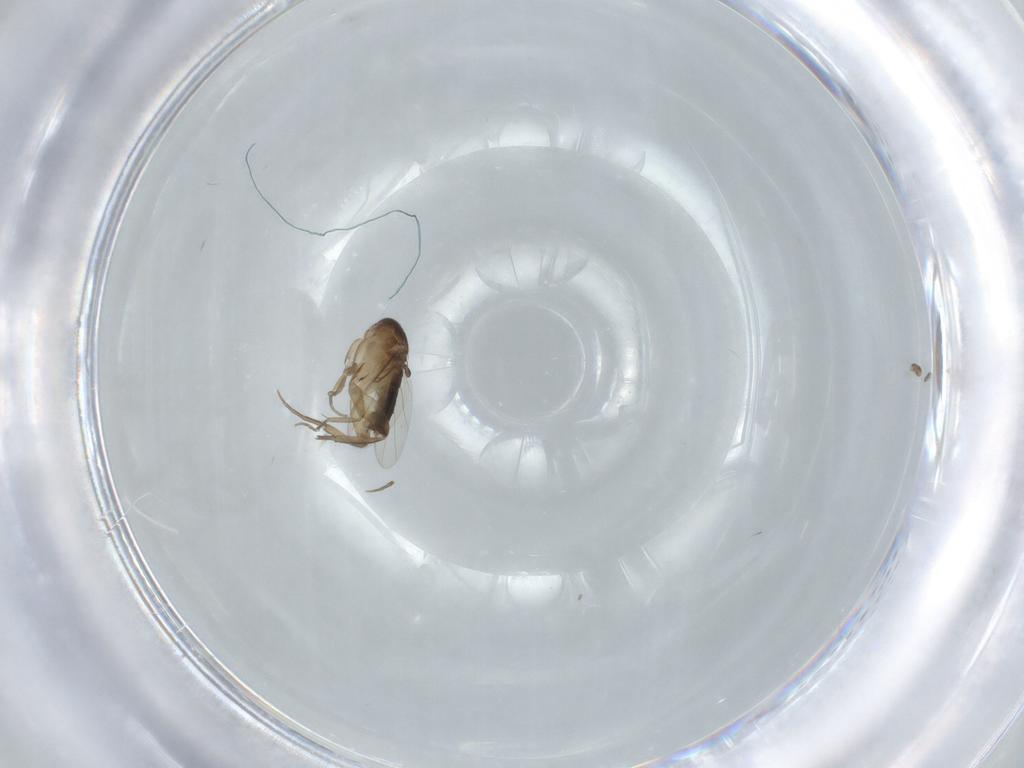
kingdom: Animalia
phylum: Arthropoda
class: Insecta
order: Diptera
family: Phoridae
